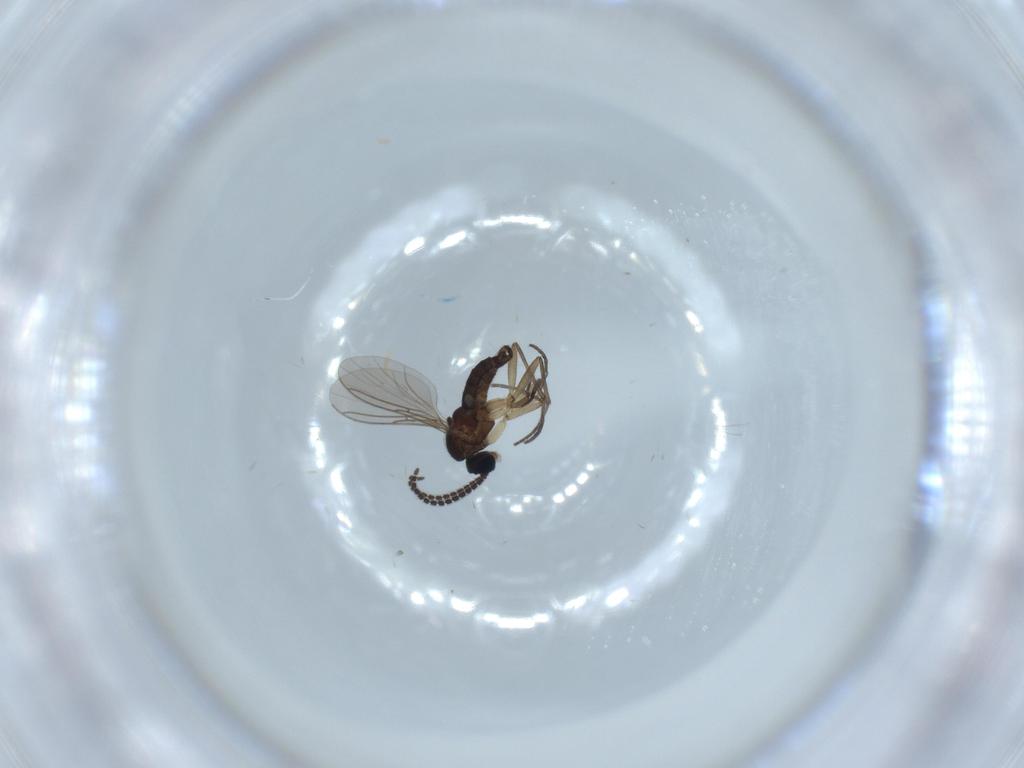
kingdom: Animalia
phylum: Arthropoda
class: Insecta
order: Diptera
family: Sciaridae
